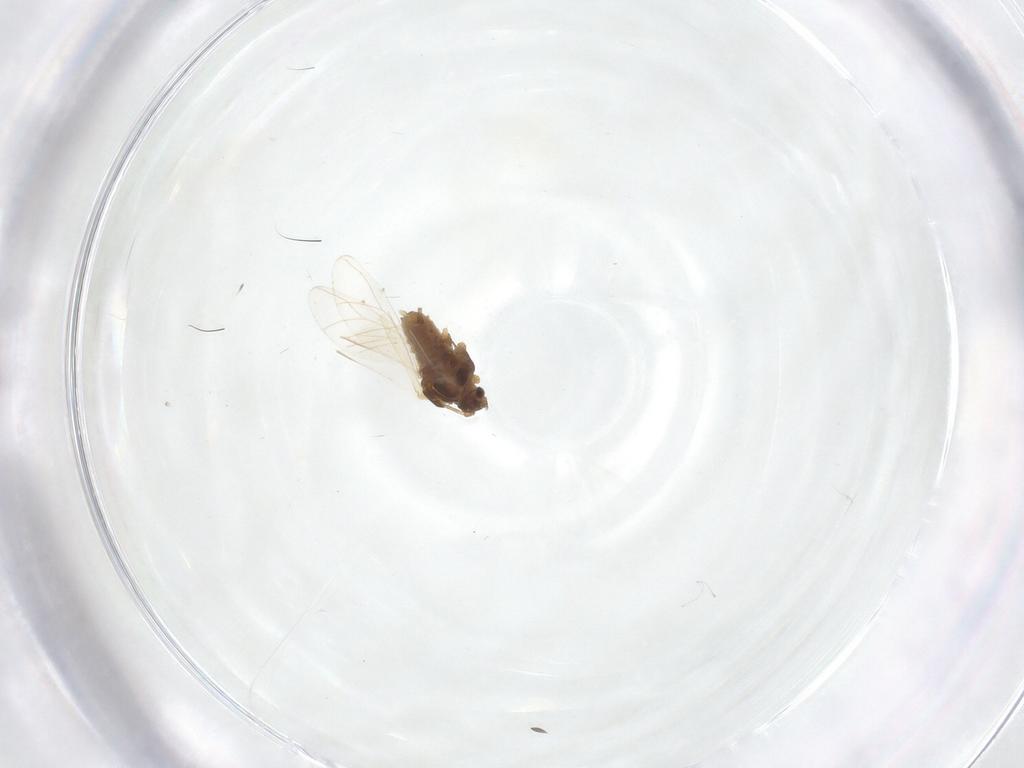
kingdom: Animalia
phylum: Arthropoda
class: Insecta
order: Hemiptera
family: Aphididae
